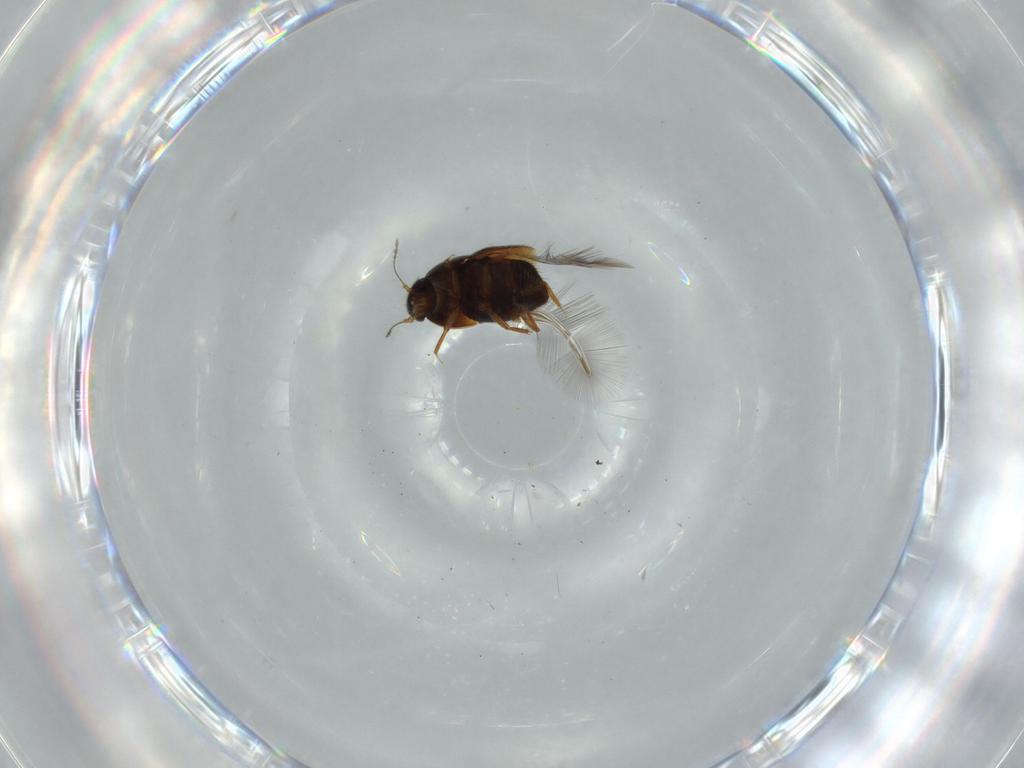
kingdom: Animalia
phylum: Arthropoda
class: Insecta
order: Coleoptera
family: Ptiliidae
